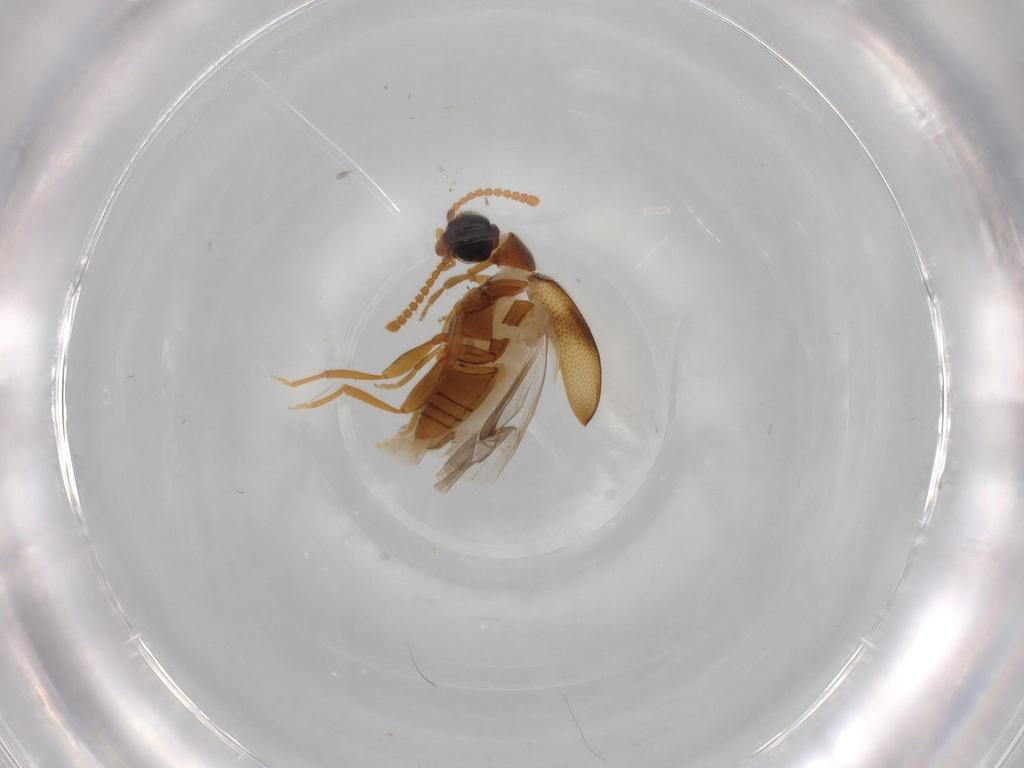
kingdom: Animalia
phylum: Arthropoda
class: Insecta
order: Coleoptera
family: Aderidae
